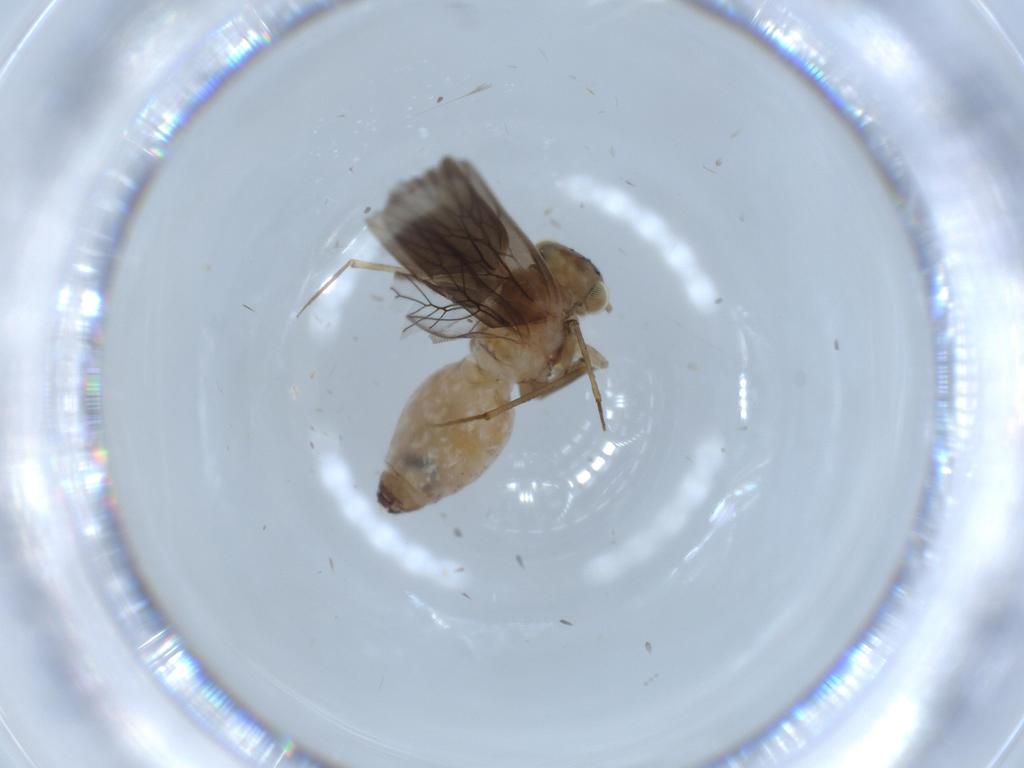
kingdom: Animalia
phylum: Arthropoda
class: Insecta
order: Psocodea
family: Lepidopsocidae
